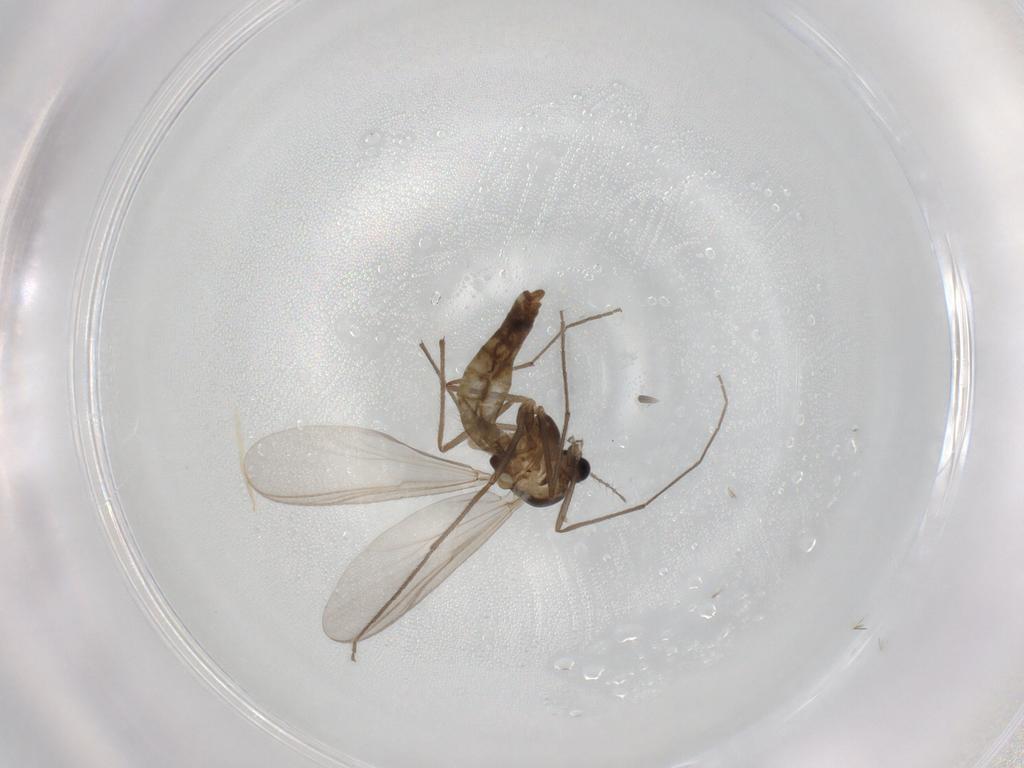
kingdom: Animalia
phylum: Arthropoda
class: Insecta
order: Diptera
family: Chironomidae
